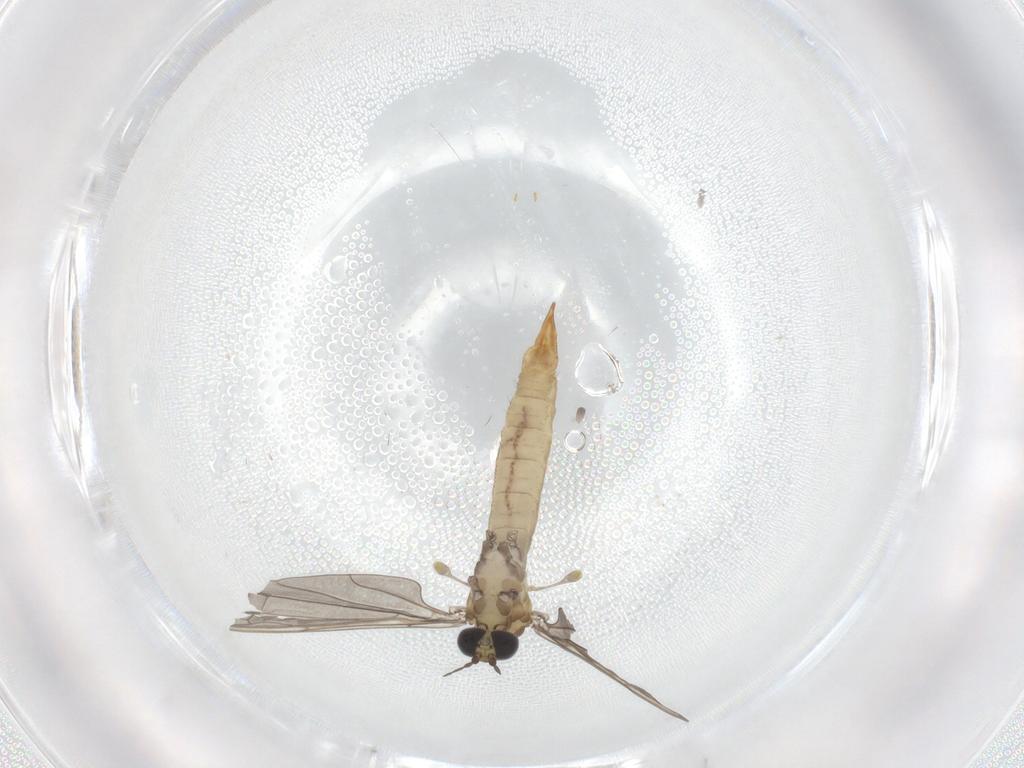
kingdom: Animalia
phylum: Arthropoda
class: Insecta
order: Diptera
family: Limoniidae
